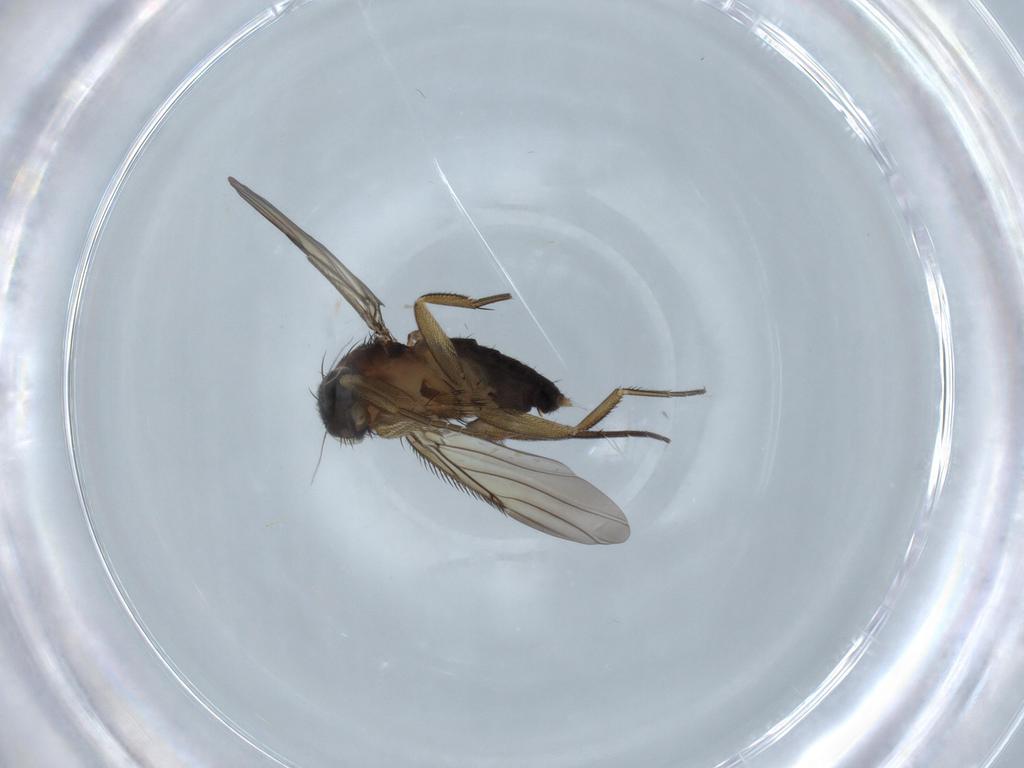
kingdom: Animalia
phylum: Arthropoda
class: Insecta
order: Diptera
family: Phoridae
